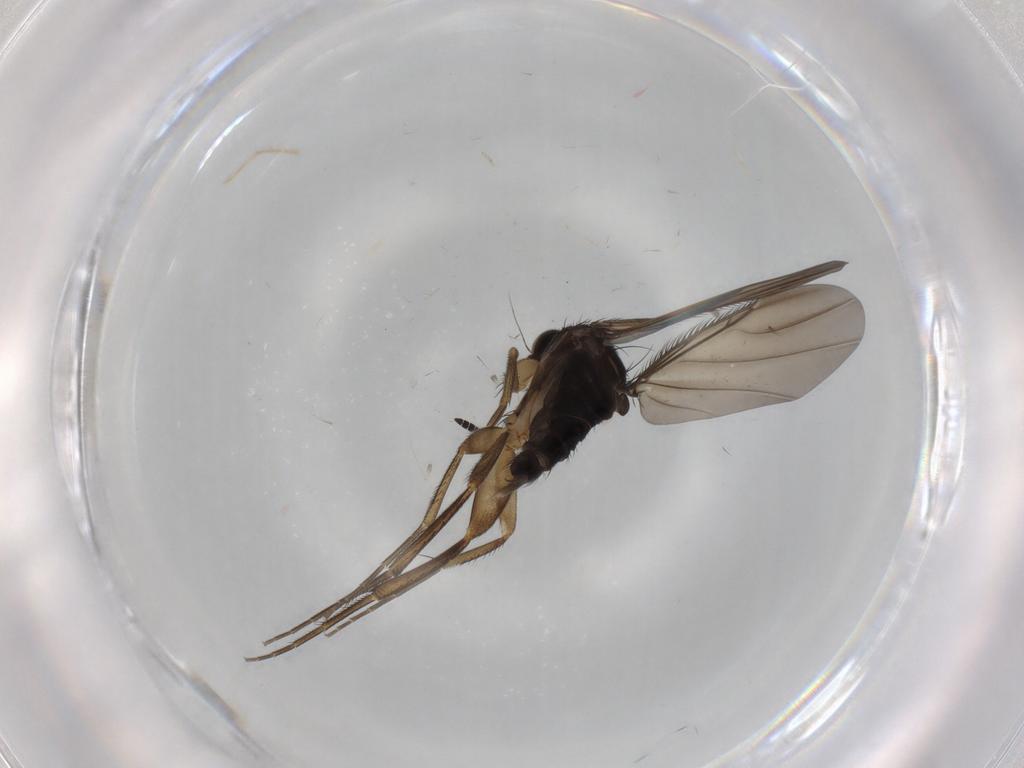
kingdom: Animalia
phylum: Arthropoda
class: Insecta
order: Diptera
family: Phoridae
